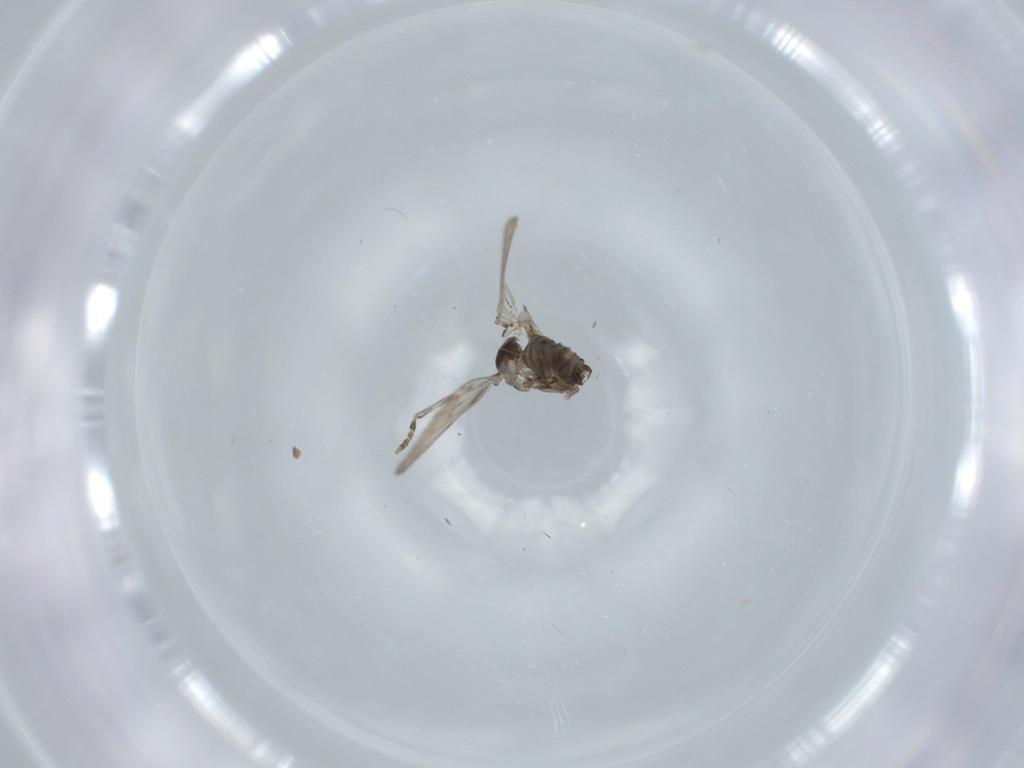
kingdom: Animalia
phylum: Arthropoda
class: Insecta
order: Diptera
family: Psychodidae
